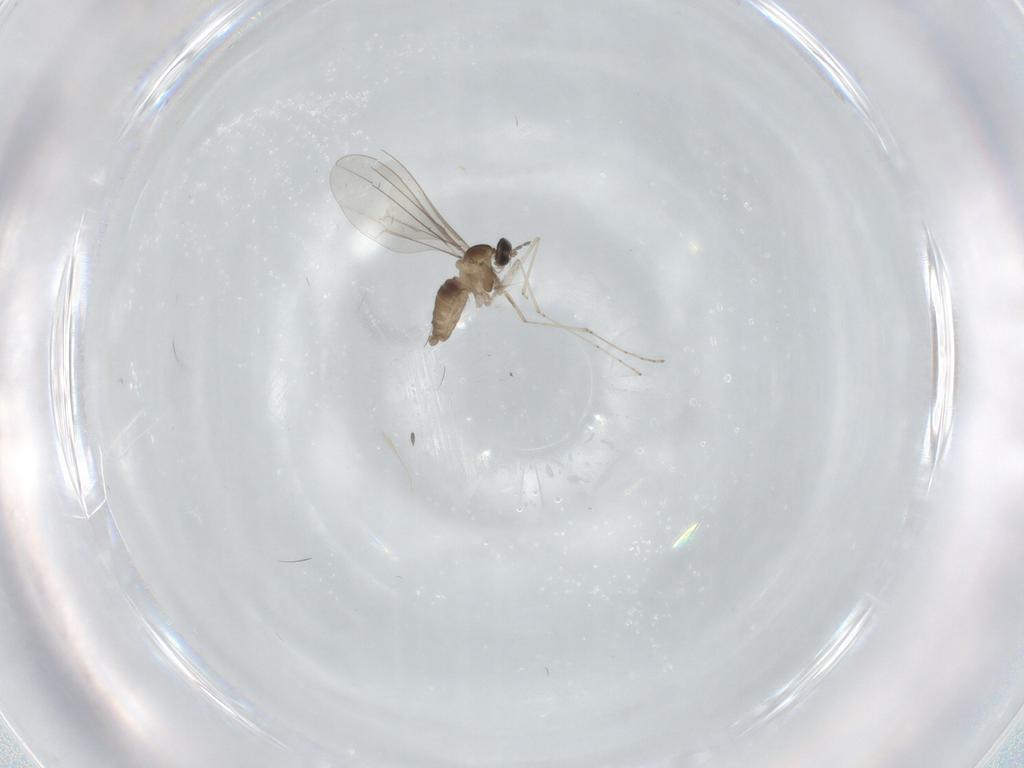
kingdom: Animalia
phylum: Arthropoda
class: Insecta
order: Diptera
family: Cecidomyiidae
